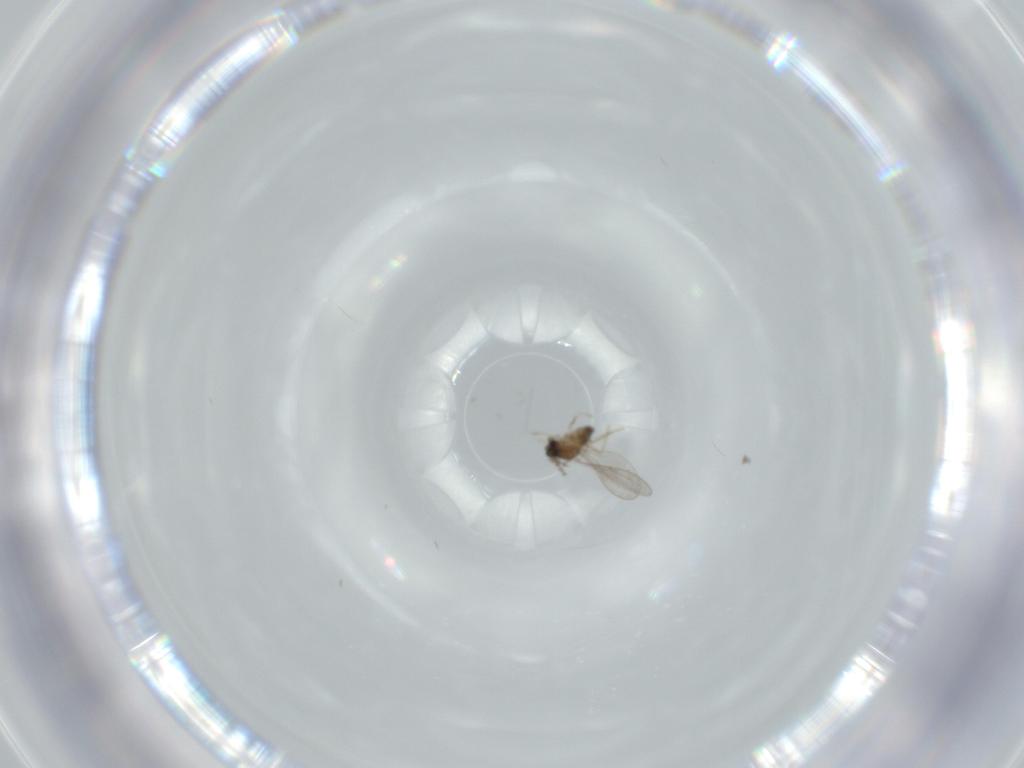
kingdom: Animalia
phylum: Arthropoda
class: Insecta
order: Diptera
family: Cecidomyiidae
